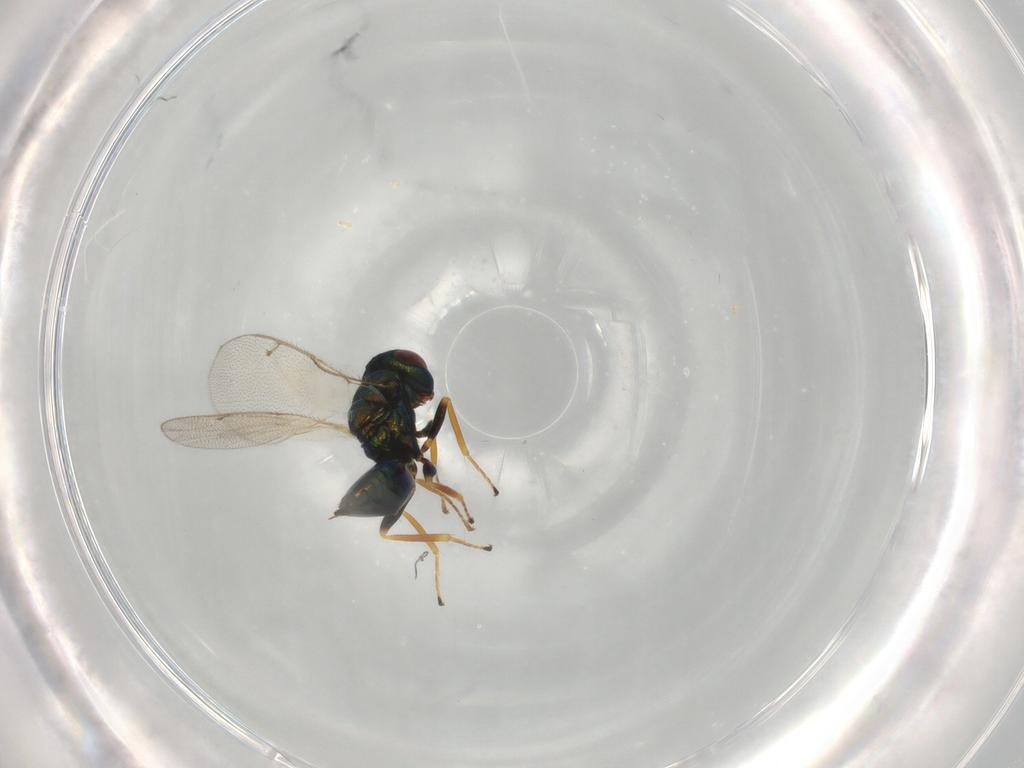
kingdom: Animalia
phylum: Arthropoda
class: Insecta
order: Hymenoptera
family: Pteromalidae
